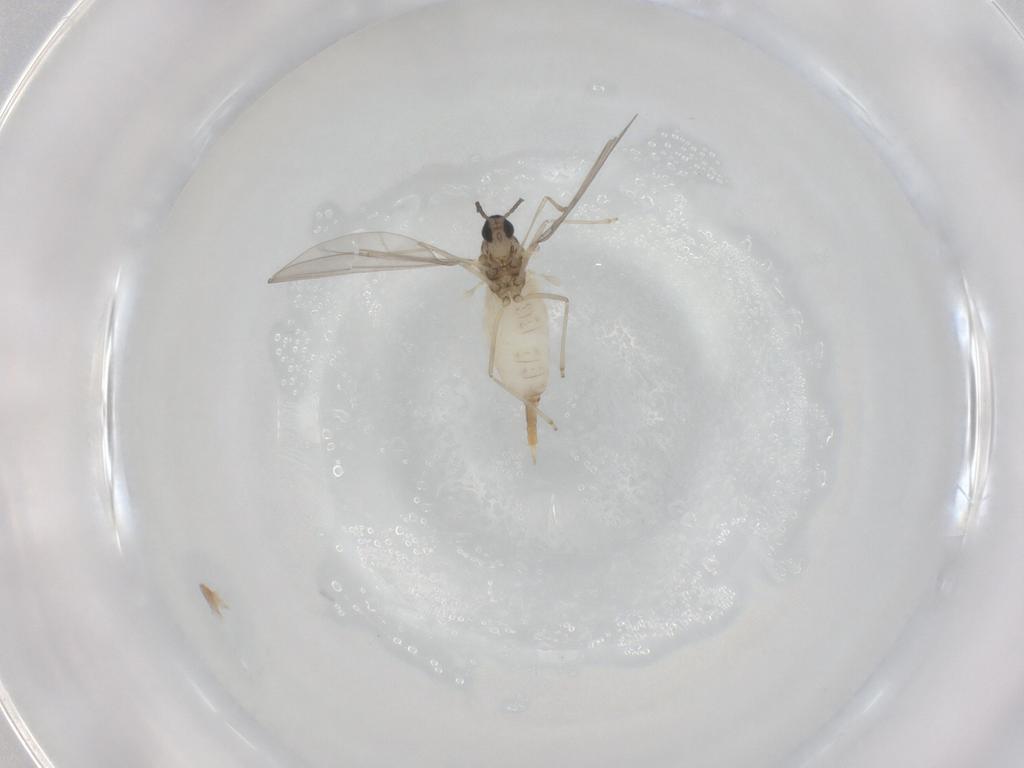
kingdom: Animalia
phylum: Arthropoda
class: Insecta
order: Diptera
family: Cecidomyiidae
